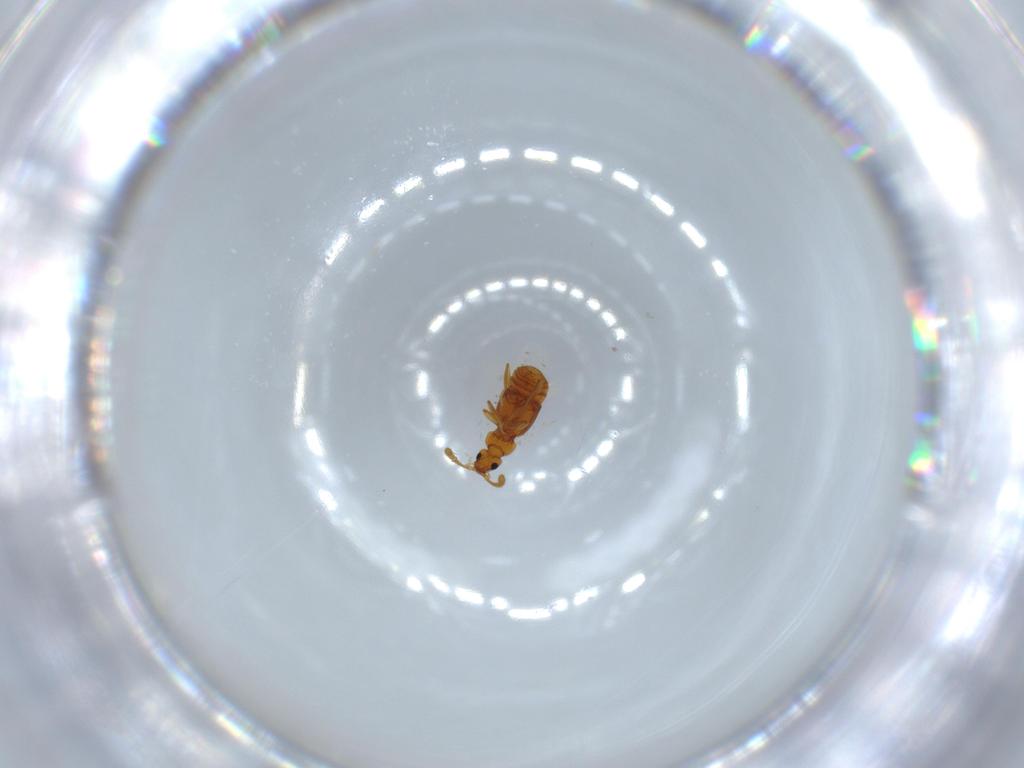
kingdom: Animalia
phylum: Arthropoda
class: Insecta
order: Coleoptera
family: Staphylinidae
